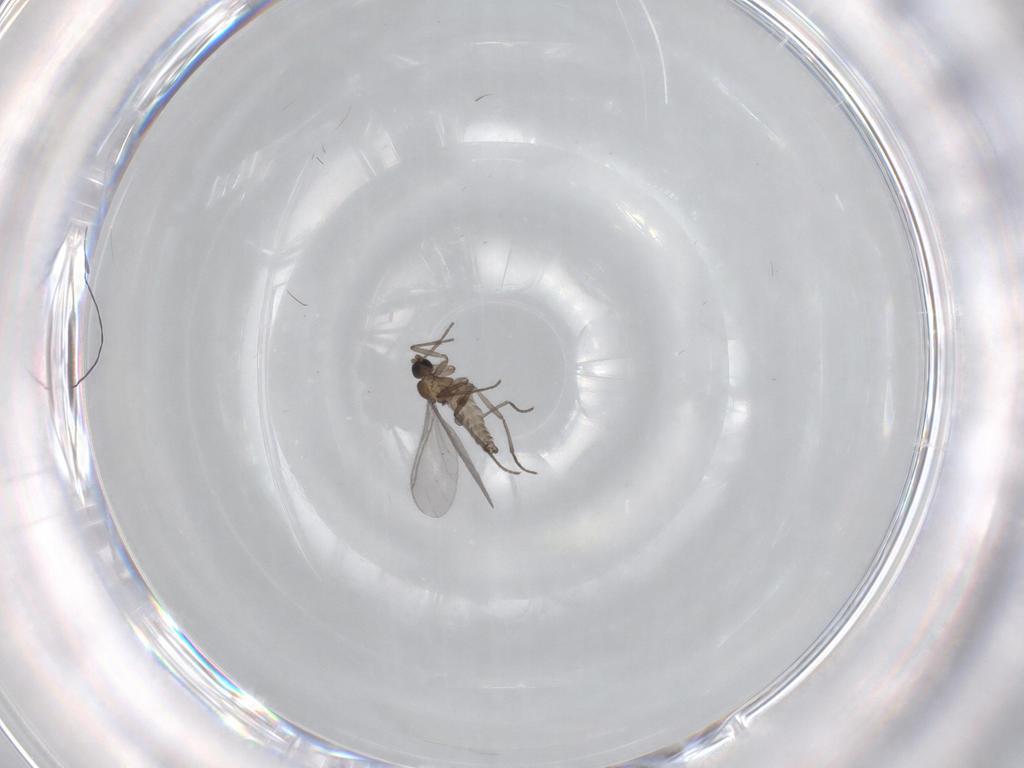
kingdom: Animalia
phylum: Arthropoda
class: Insecta
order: Diptera
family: Sciaridae
